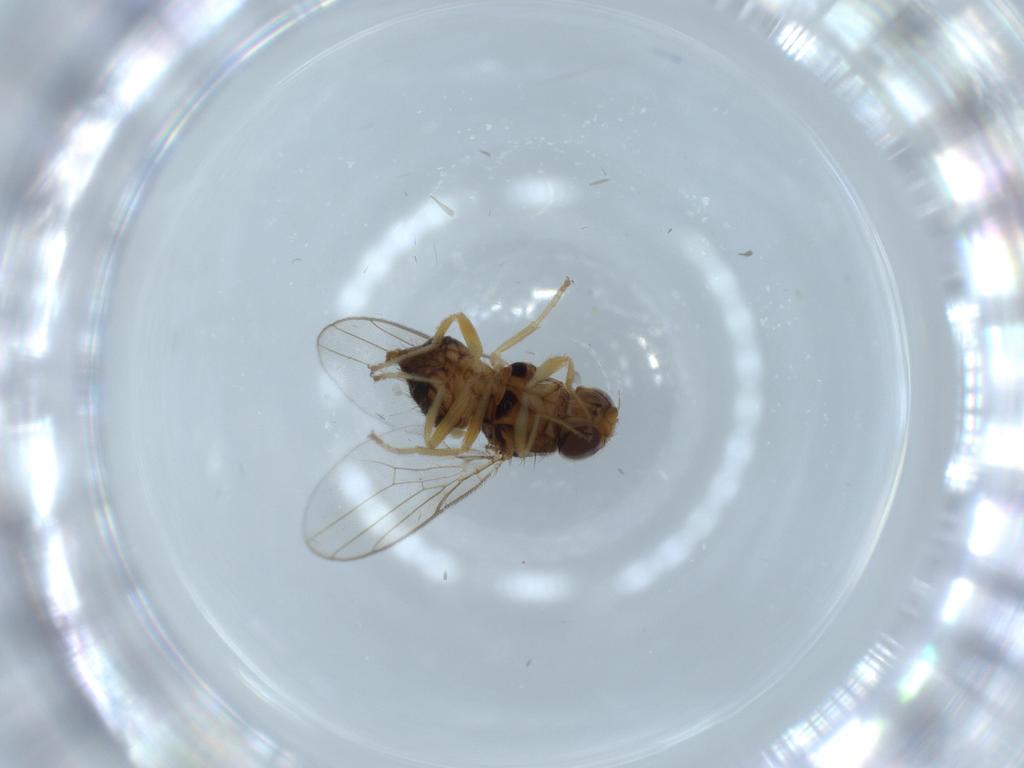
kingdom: Animalia
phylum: Arthropoda
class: Insecta
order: Diptera
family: Chloropidae
